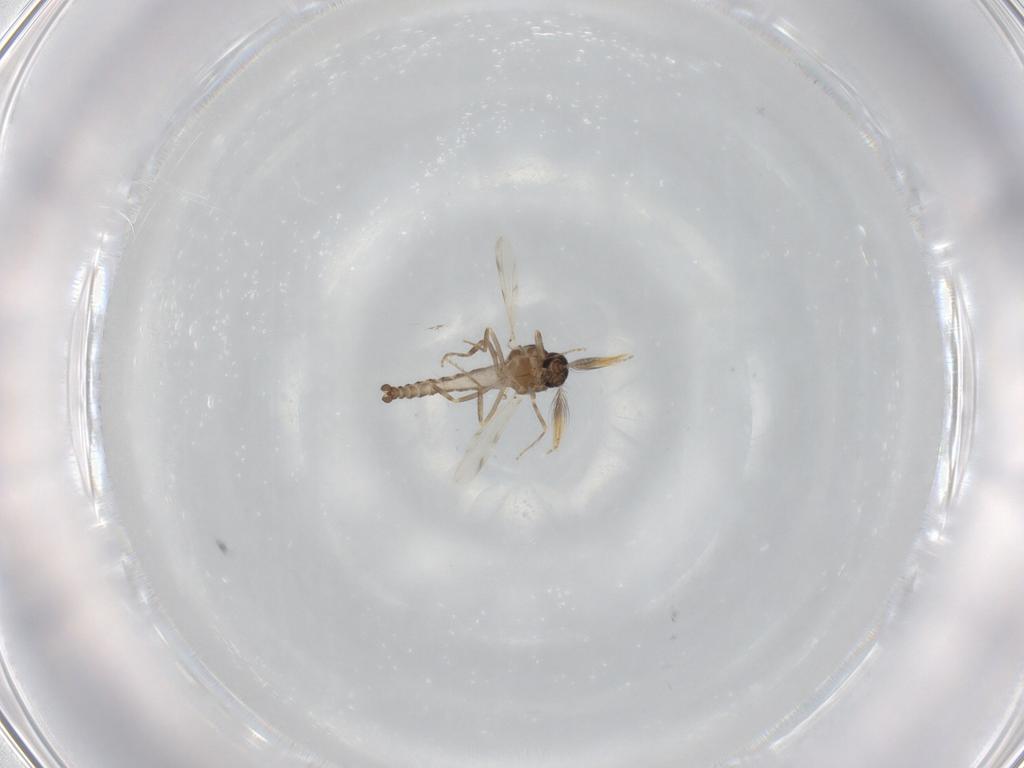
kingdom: Animalia
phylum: Arthropoda
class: Insecta
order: Diptera
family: Ceratopogonidae
